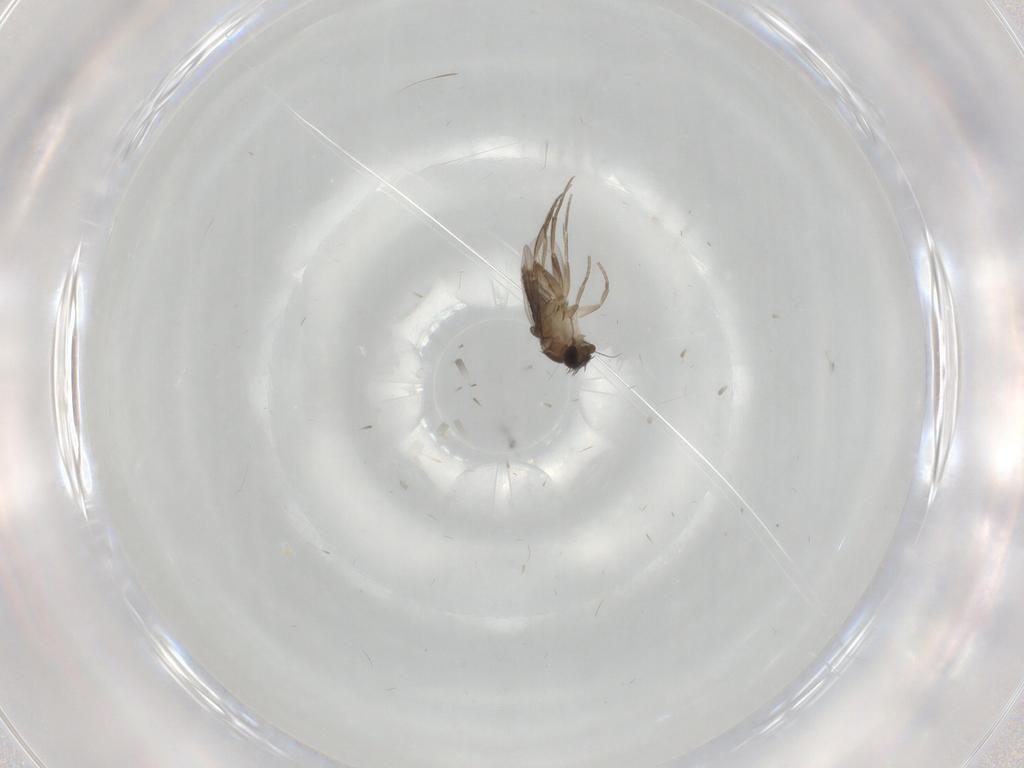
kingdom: Animalia
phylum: Arthropoda
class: Insecta
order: Diptera
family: Phoridae
